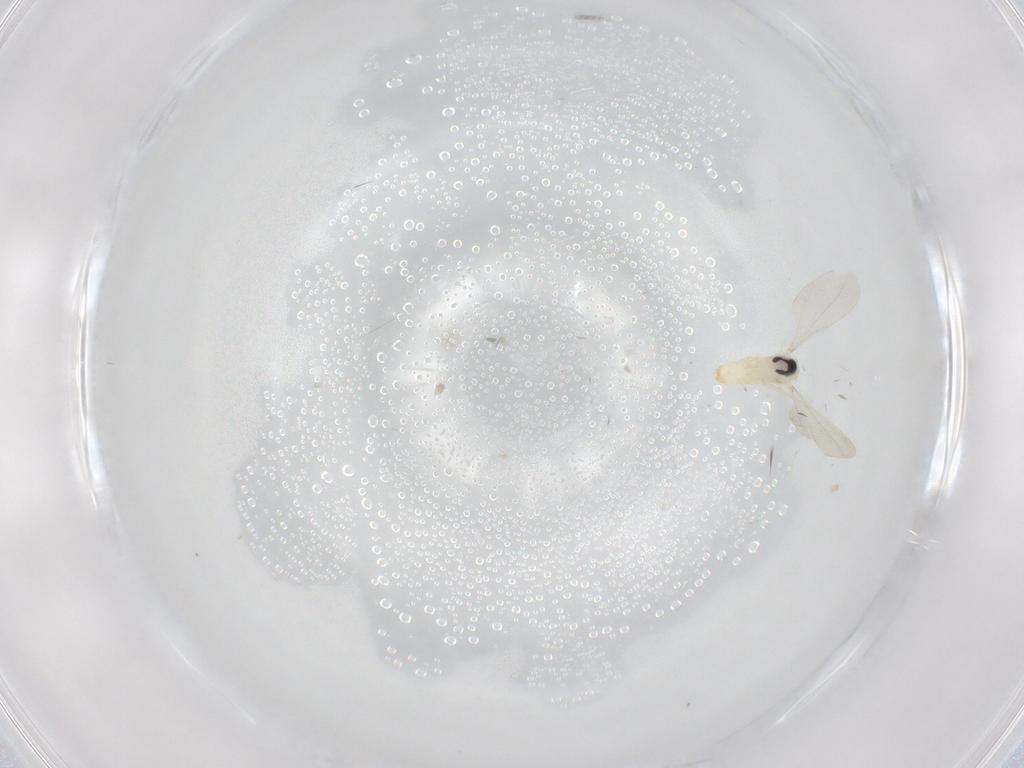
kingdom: Animalia
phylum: Arthropoda
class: Insecta
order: Diptera
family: Cecidomyiidae
